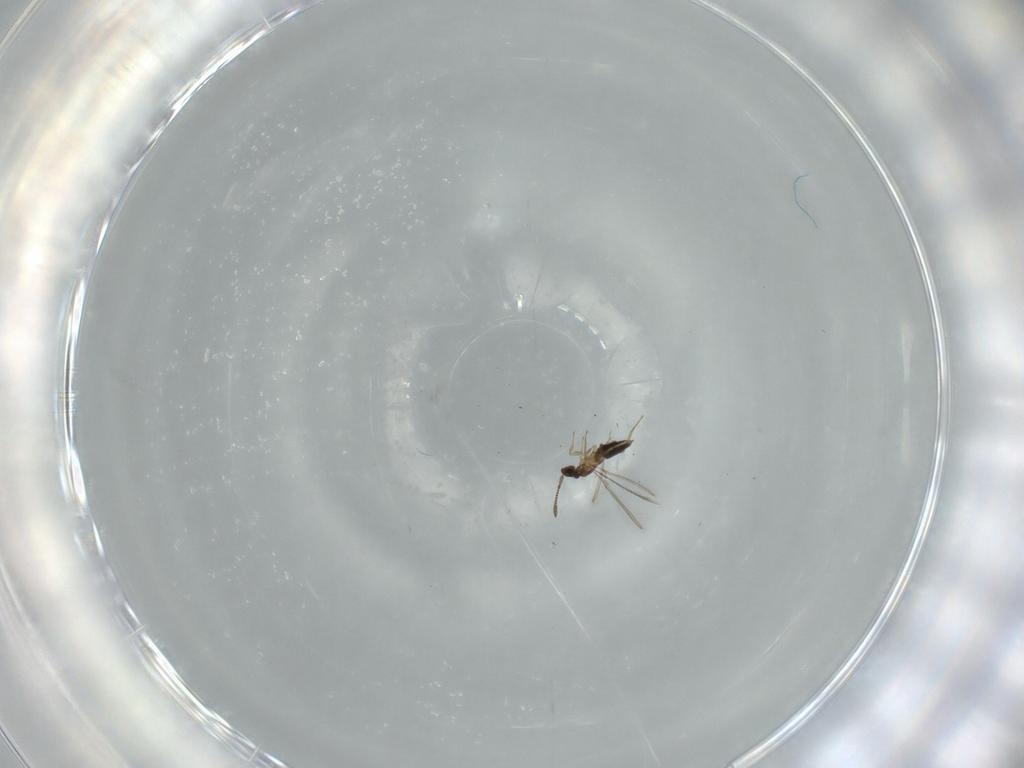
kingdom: Animalia
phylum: Arthropoda
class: Insecta
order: Hymenoptera
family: Mymaridae
